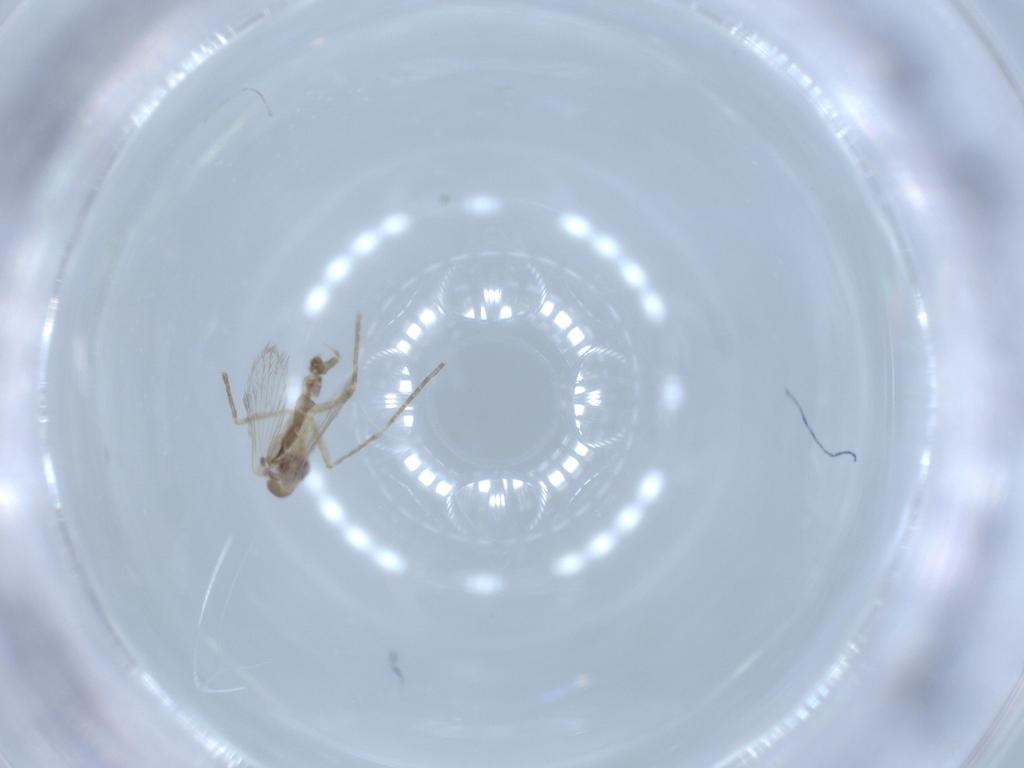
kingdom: Animalia
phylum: Arthropoda
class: Insecta
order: Diptera
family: Psychodidae
